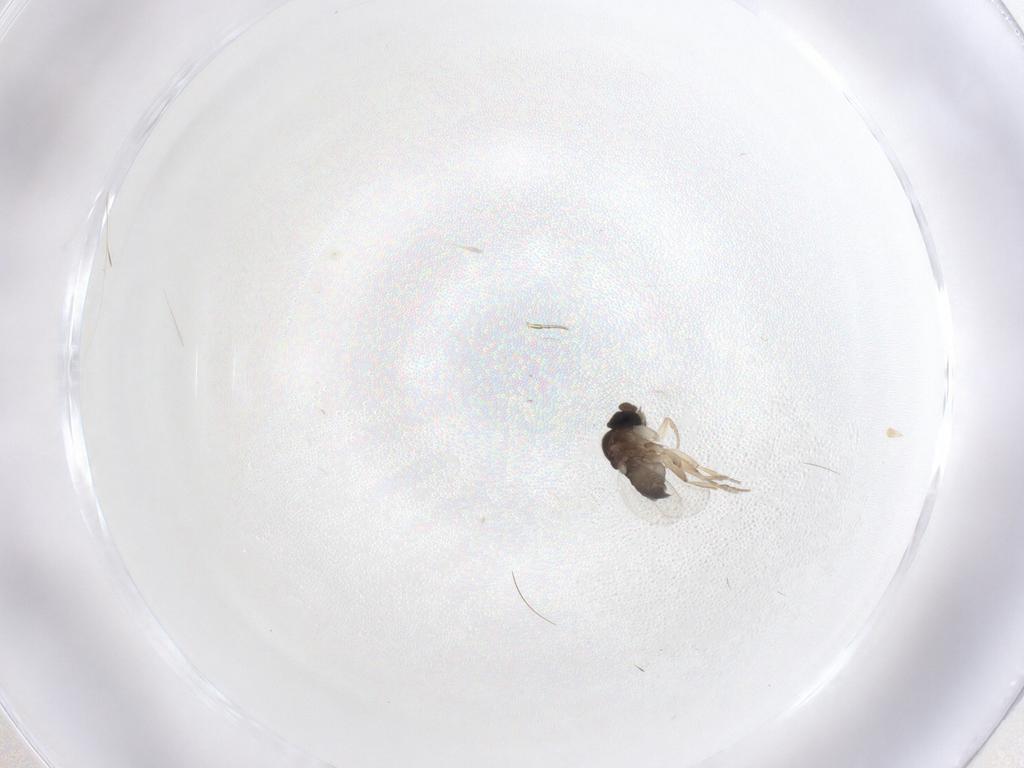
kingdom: Animalia
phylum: Arthropoda
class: Insecta
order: Diptera
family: Phoridae
